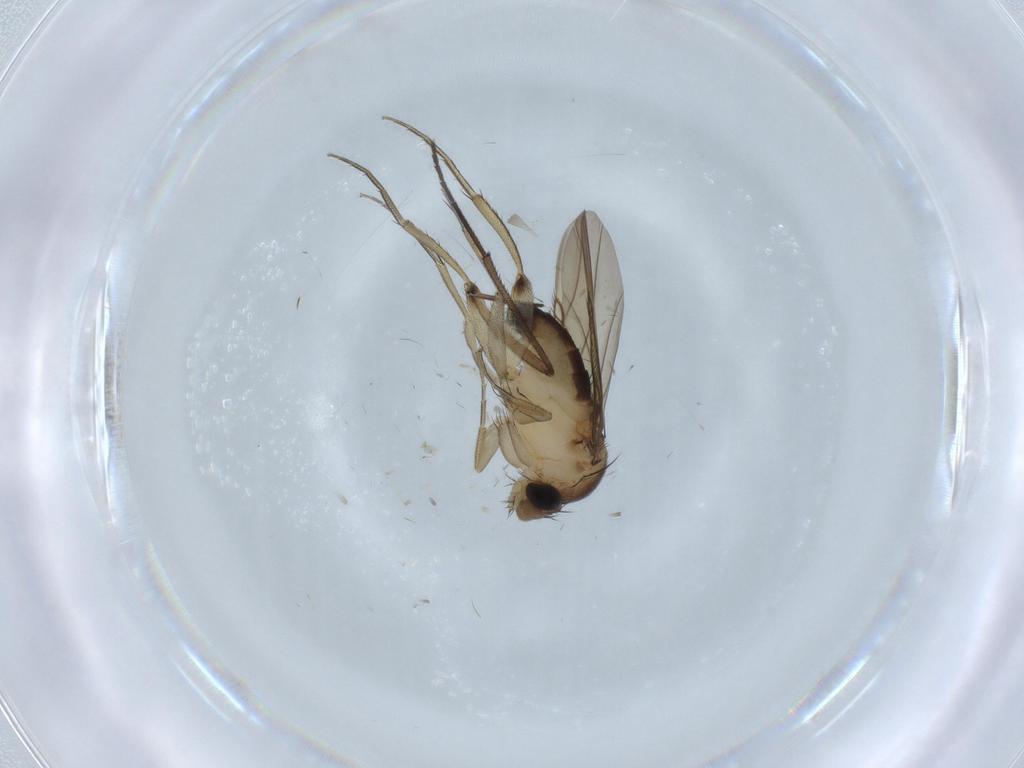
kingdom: Animalia
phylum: Arthropoda
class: Insecta
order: Diptera
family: Phoridae
